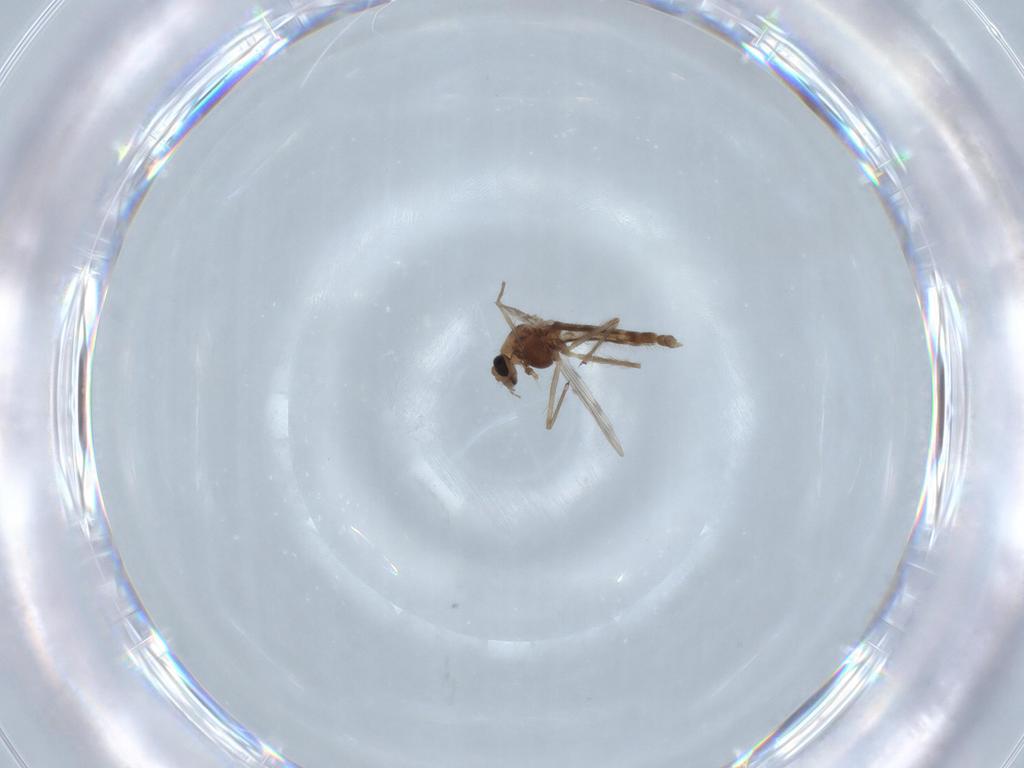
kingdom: Animalia
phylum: Arthropoda
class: Insecta
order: Diptera
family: Chironomidae
